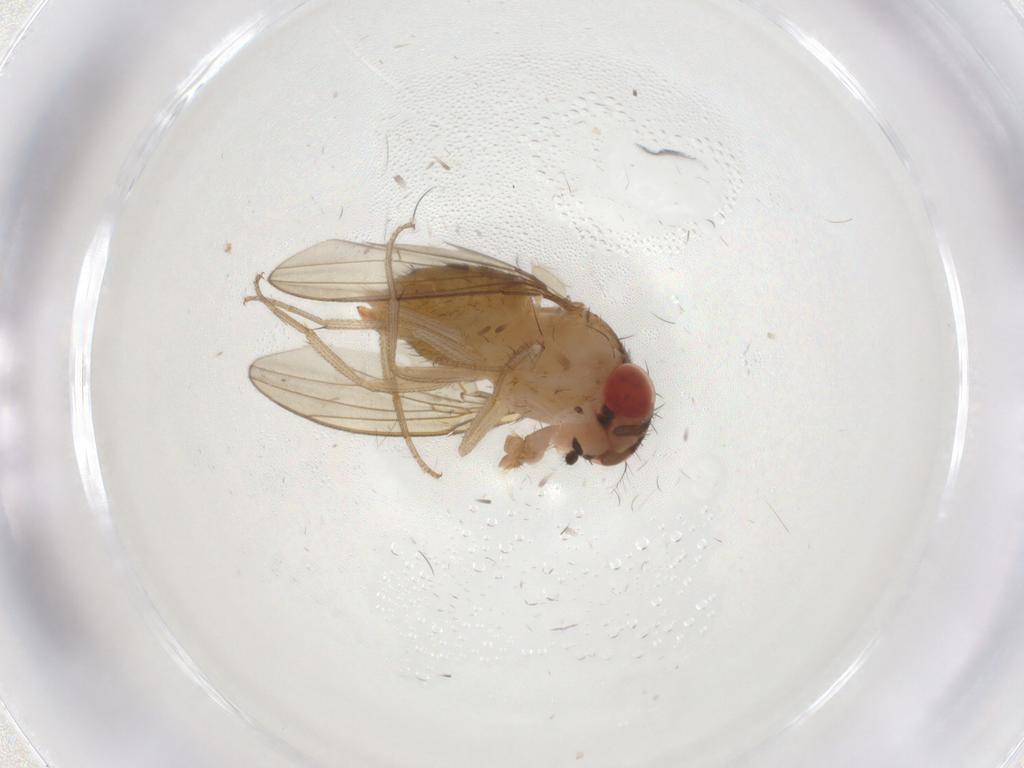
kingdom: Animalia
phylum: Arthropoda
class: Insecta
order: Diptera
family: Drosophilidae
